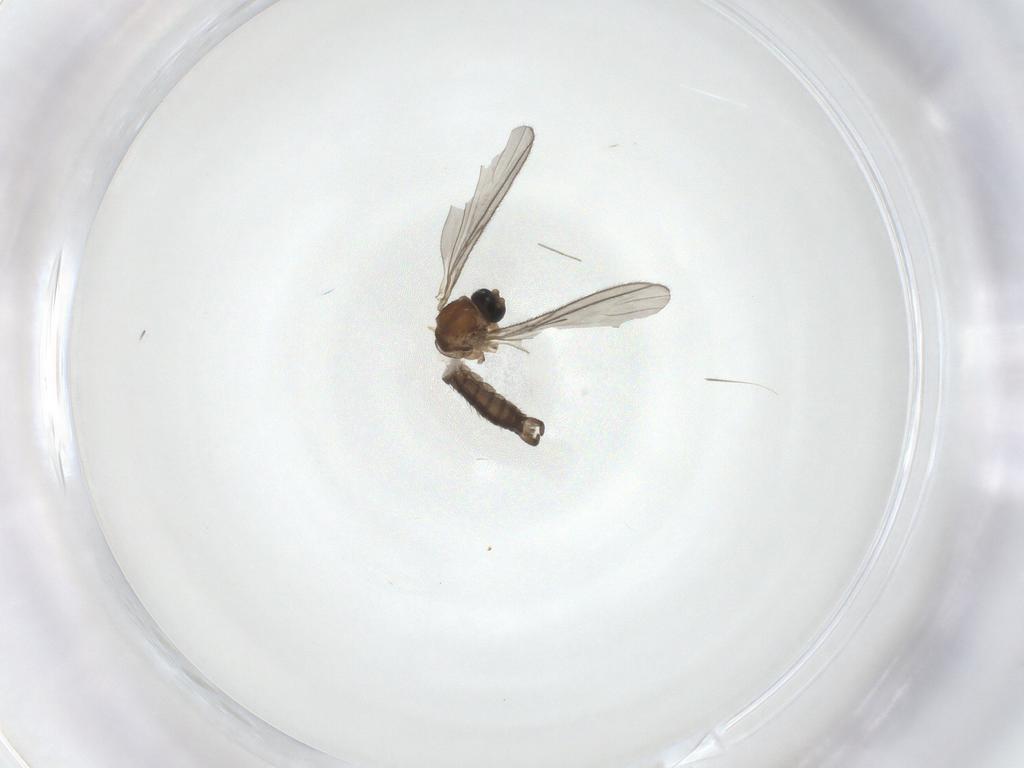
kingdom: Animalia
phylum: Arthropoda
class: Insecta
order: Diptera
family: Sciaridae
